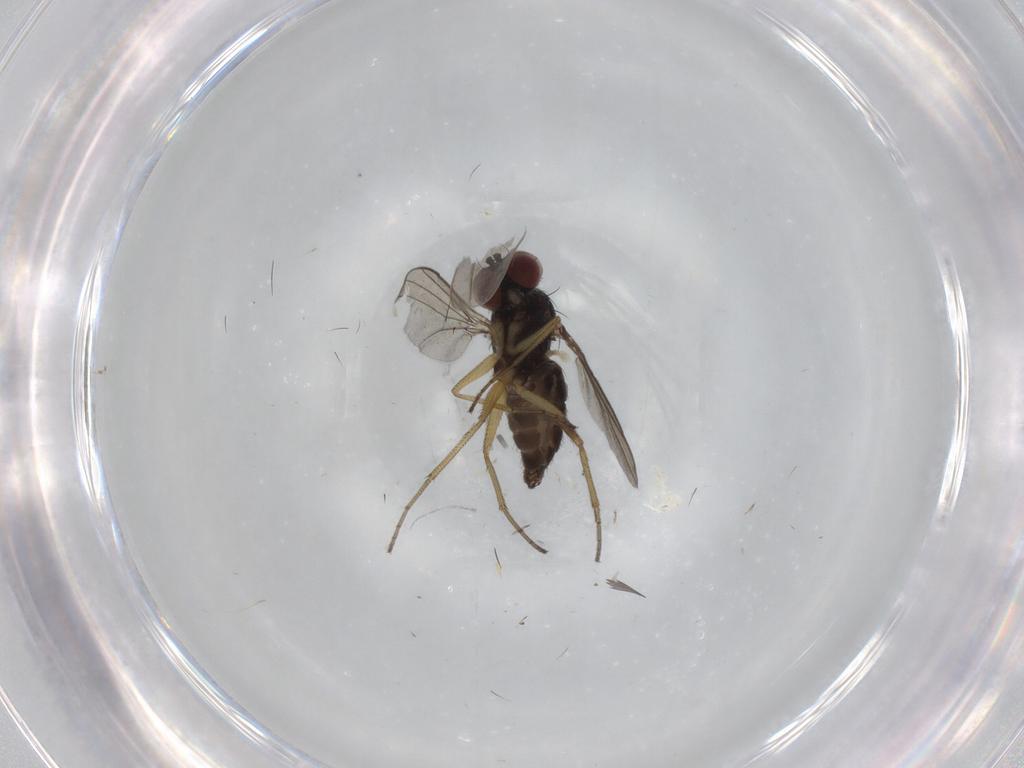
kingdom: Animalia
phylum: Arthropoda
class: Insecta
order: Diptera
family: Dolichopodidae
